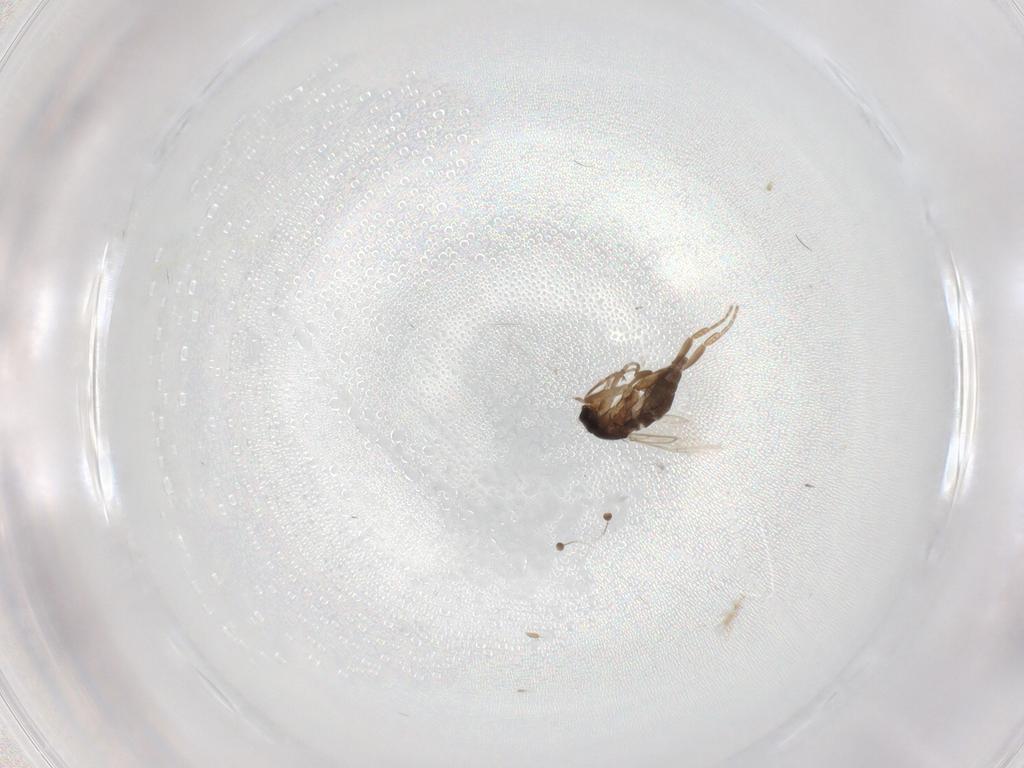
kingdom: Animalia
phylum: Arthropoda
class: Insecta
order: Diptera
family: Phoridae
